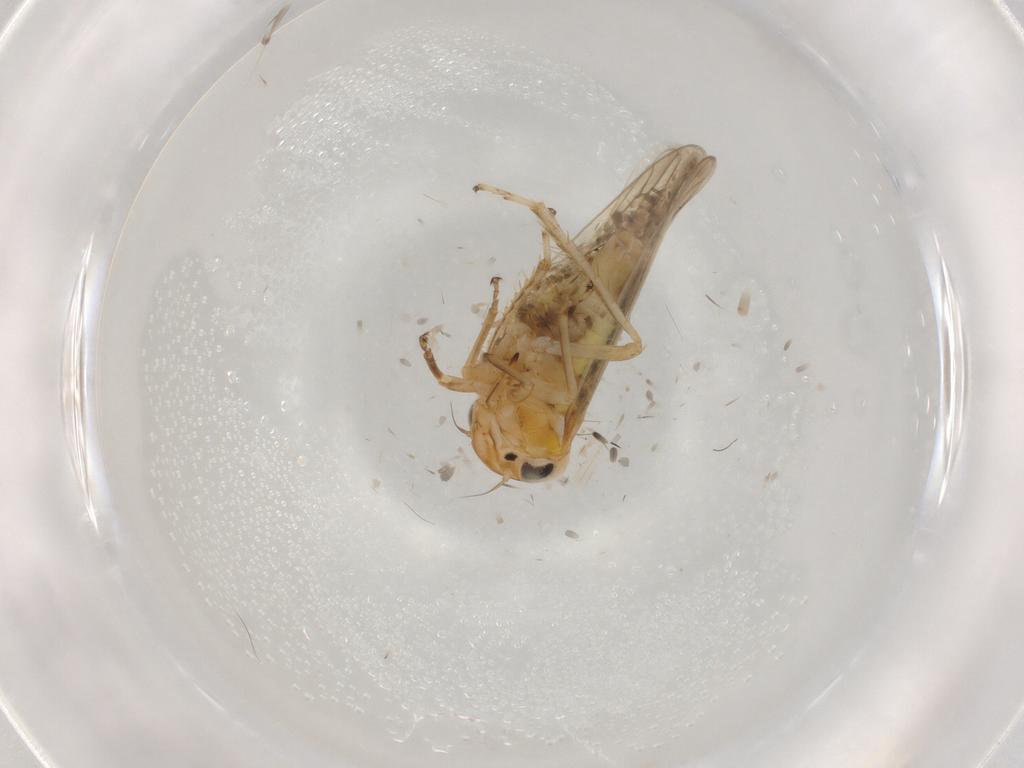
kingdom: Animalia
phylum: Arthropoda
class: Insecta
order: Hemiptera
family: Cicadellidae
